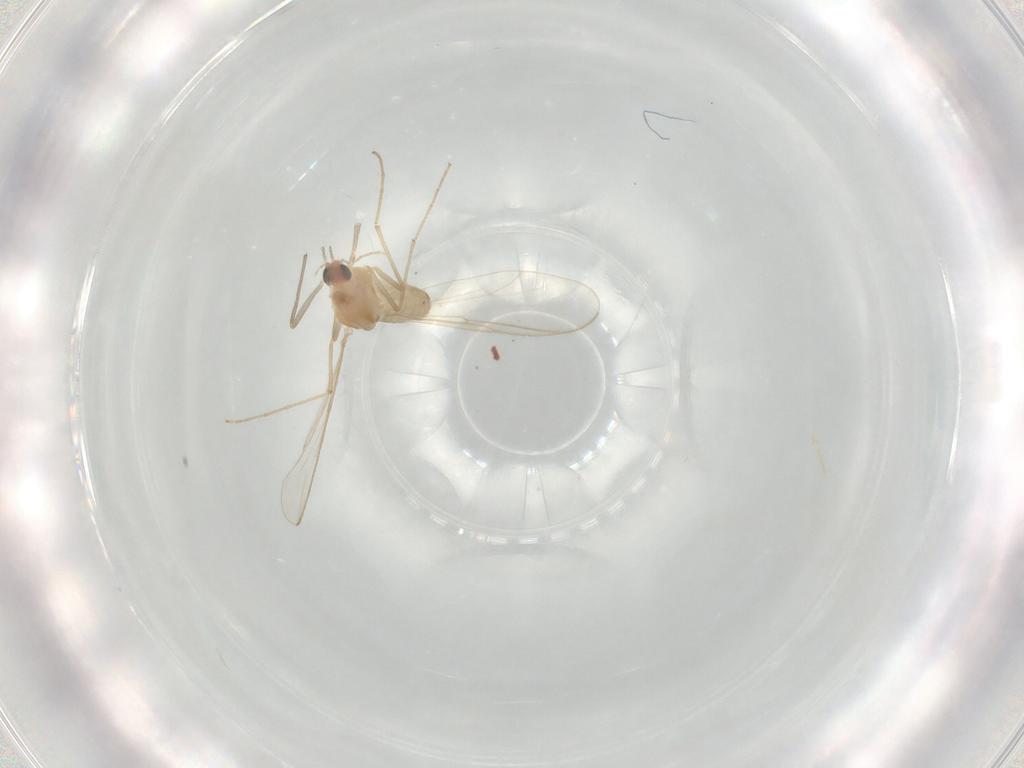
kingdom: Animalia
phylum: Arthropoda
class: Insecta
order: Diptera
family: Chironomidae
